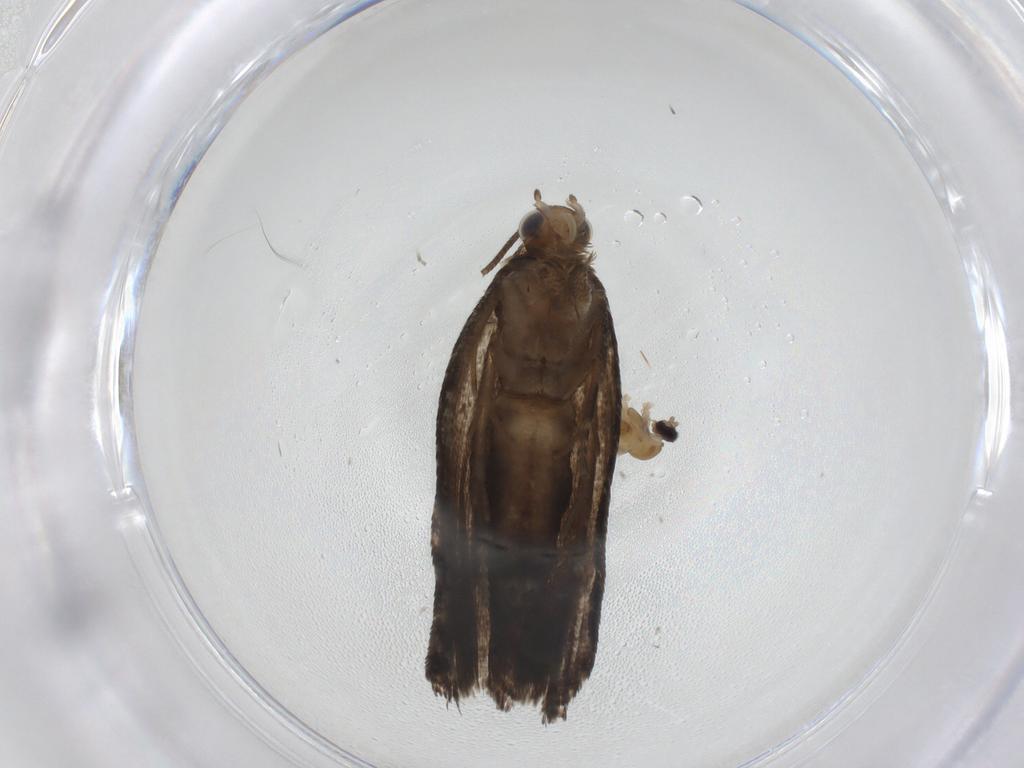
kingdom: Animalia
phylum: Arthropoda
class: Insecta
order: Diptera
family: Cecidomyiidae
